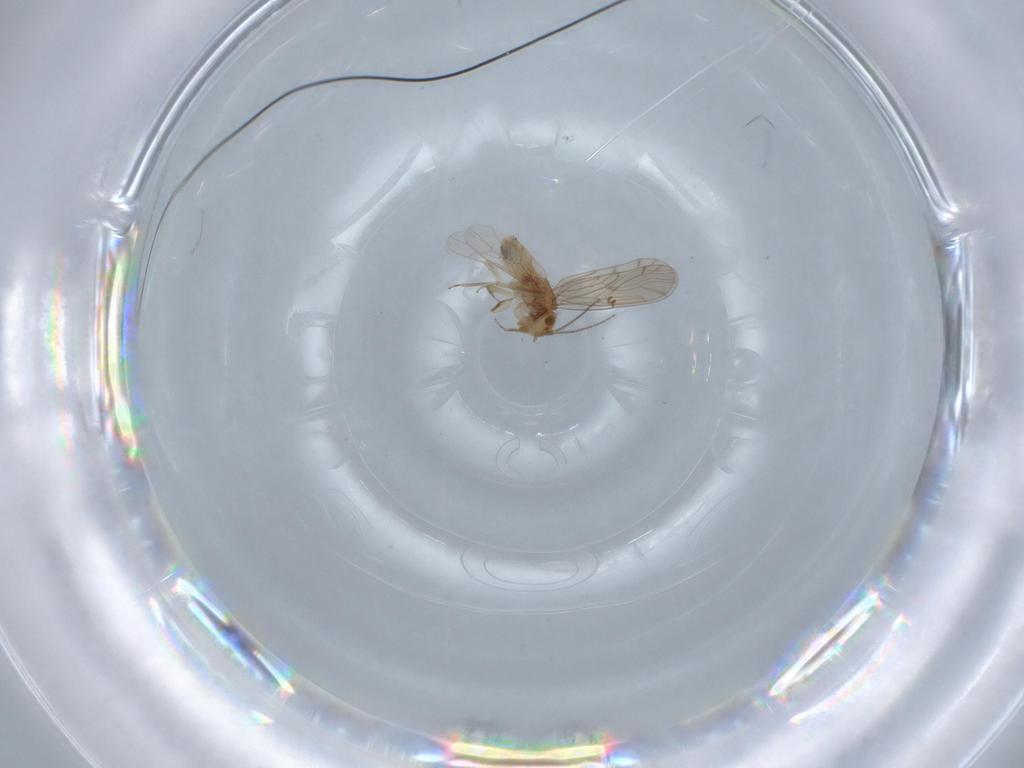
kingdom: Animalia
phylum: Arthropoda
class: Insecta
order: Psocodea
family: Ectopsocidae
